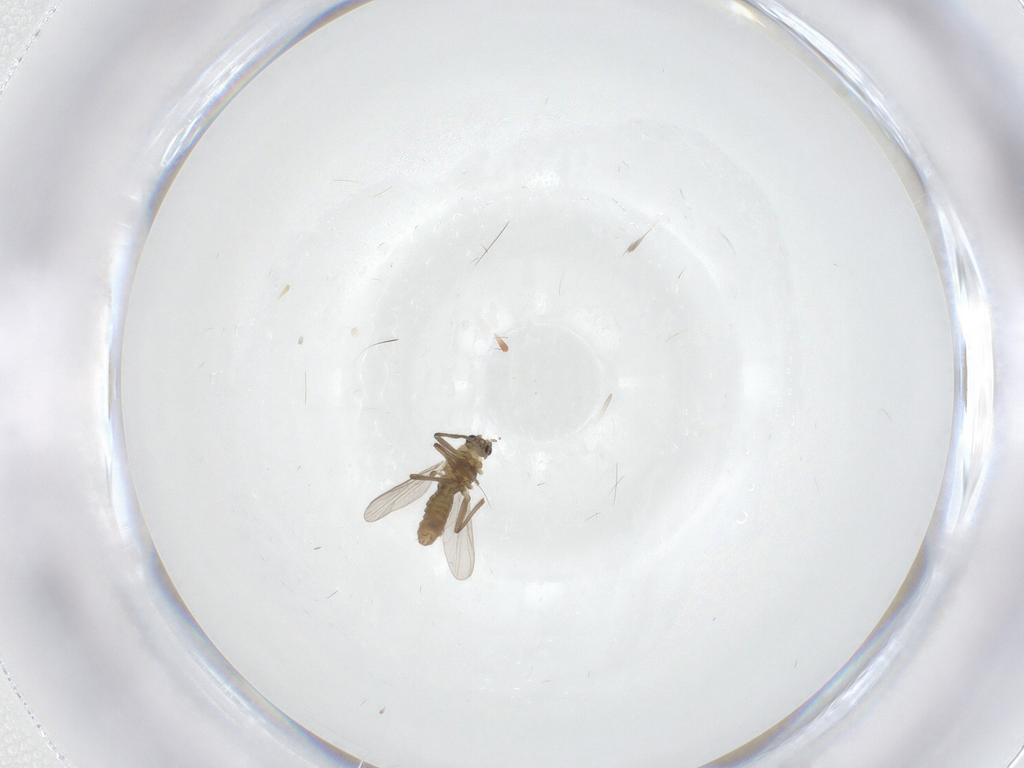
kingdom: Animalia
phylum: Arthropoda
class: Insecta
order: Diptera
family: Chironomidae
